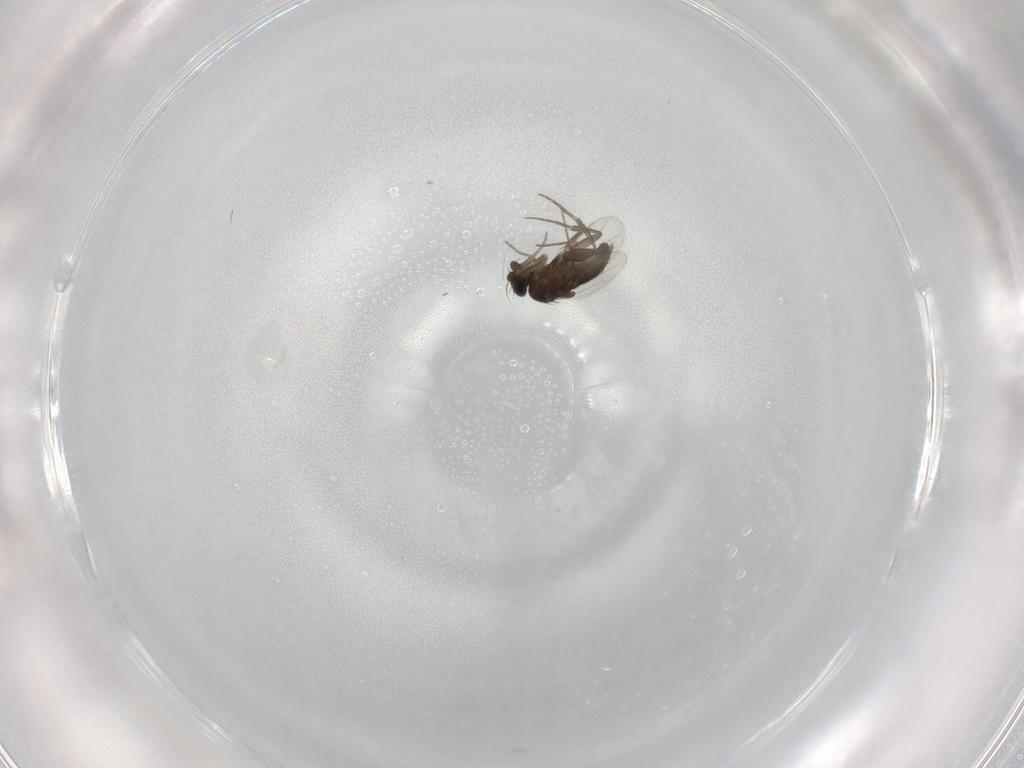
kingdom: Animalia
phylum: Arthropoda
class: Insecta
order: Diptera
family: Phoridae
